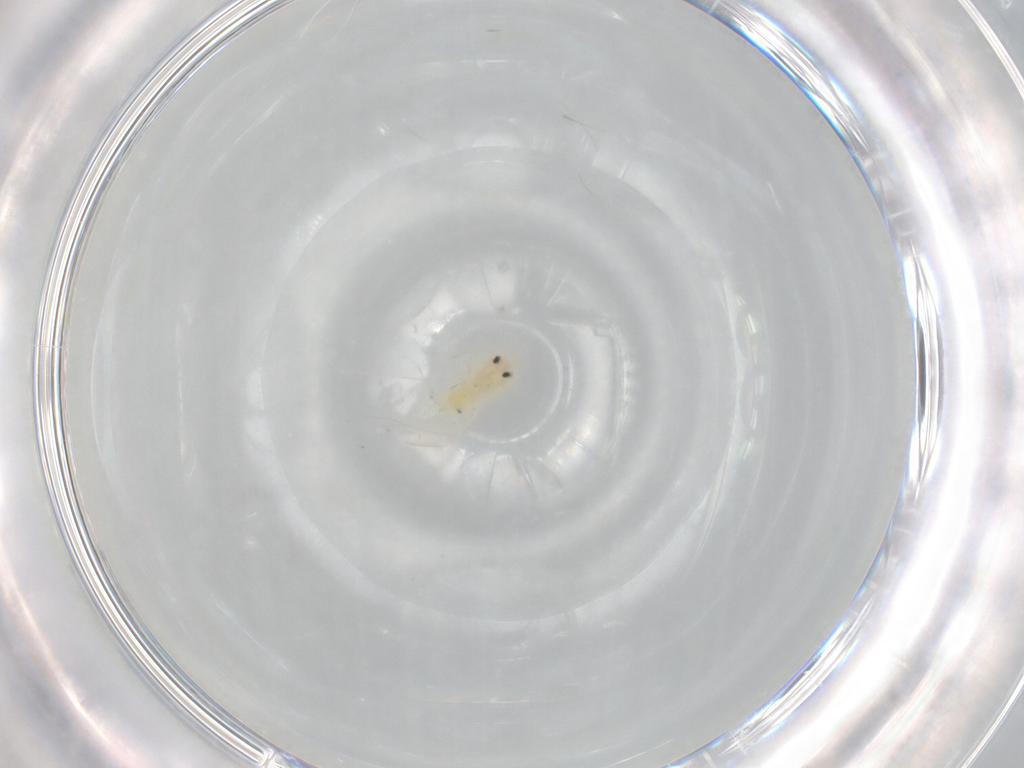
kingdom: Animalia
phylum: Arthropoda
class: Insecta
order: Hemiptera
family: Aleyrodidae
